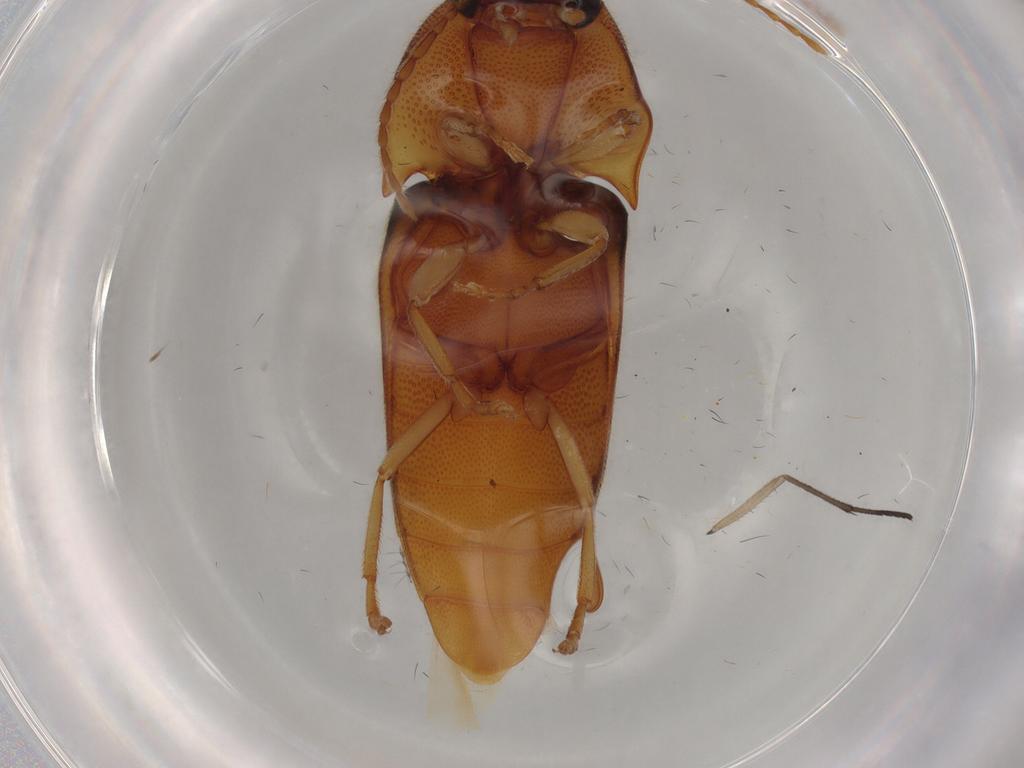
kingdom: Animalia
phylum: Arthropoda
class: Insecta
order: Coleoptera
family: Elateridae
